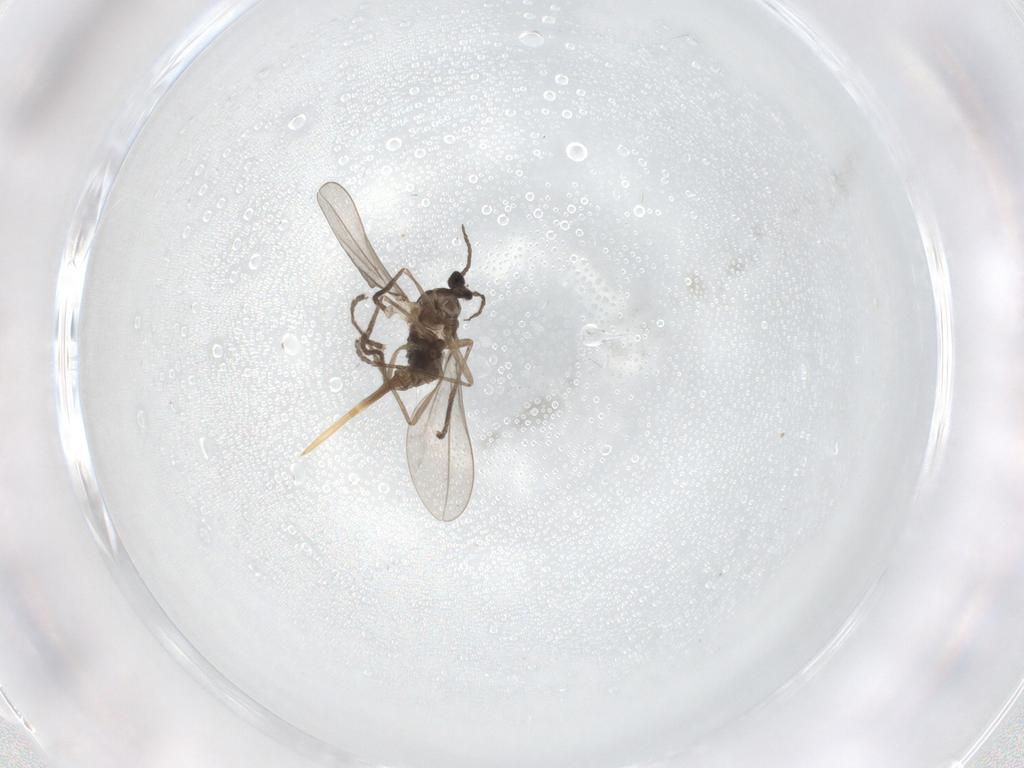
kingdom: Animalia
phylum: Arthropoda
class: Insecta
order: Diptera
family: Cecidomyiidae
